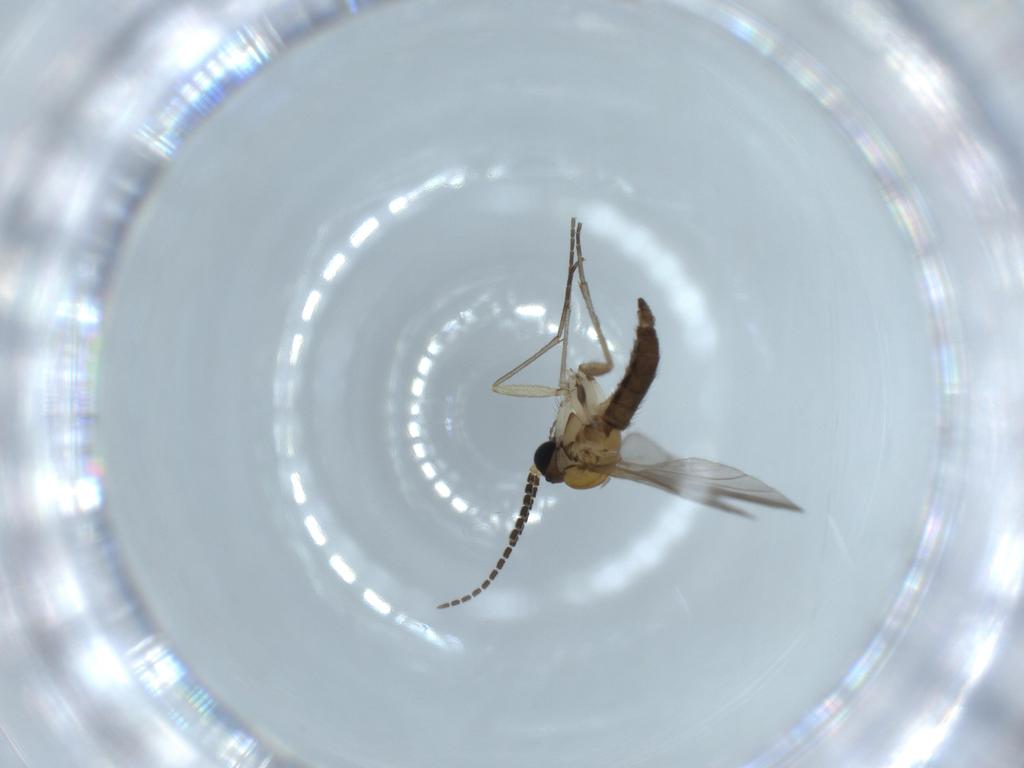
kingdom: Animalia
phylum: Arthropoda
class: Insecta
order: Diptera
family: Sciaridae
